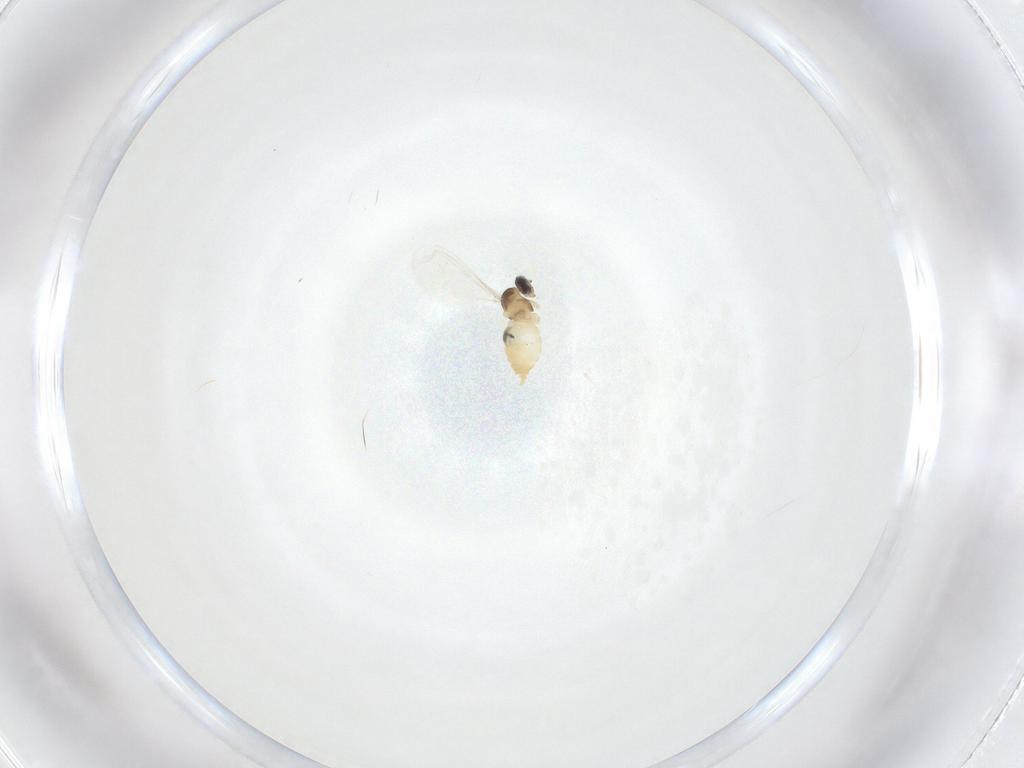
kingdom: Animalia
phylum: Arthropoda
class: Insecta
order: Diptera
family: Cecidomyiidae
